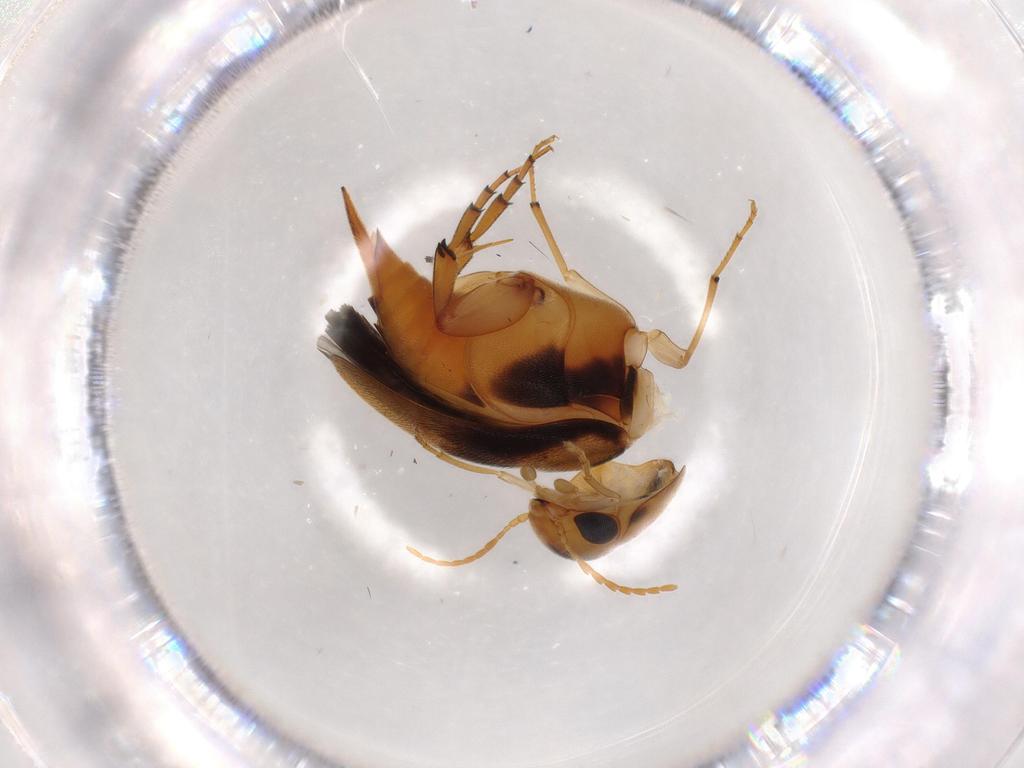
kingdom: Animalia
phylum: Arthropoda
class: Insecta
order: Coleoptera
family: Mordellidae
